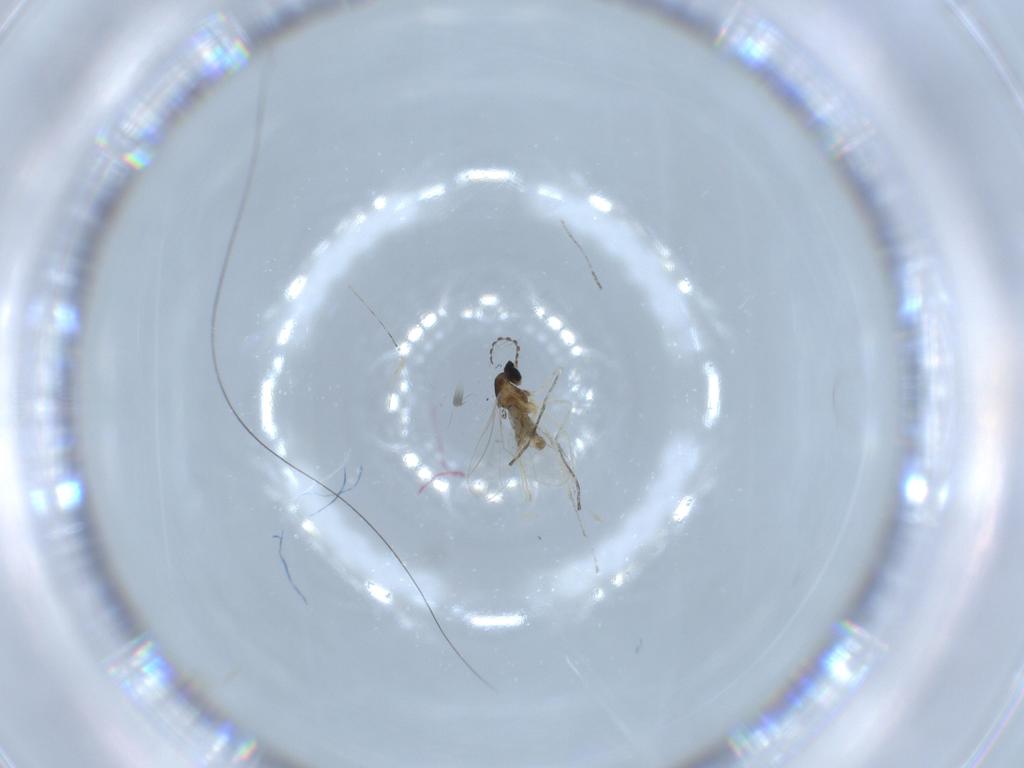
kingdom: Animalia
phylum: Arthropoda
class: Insecta
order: Diptera
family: Cecidomyiidae
